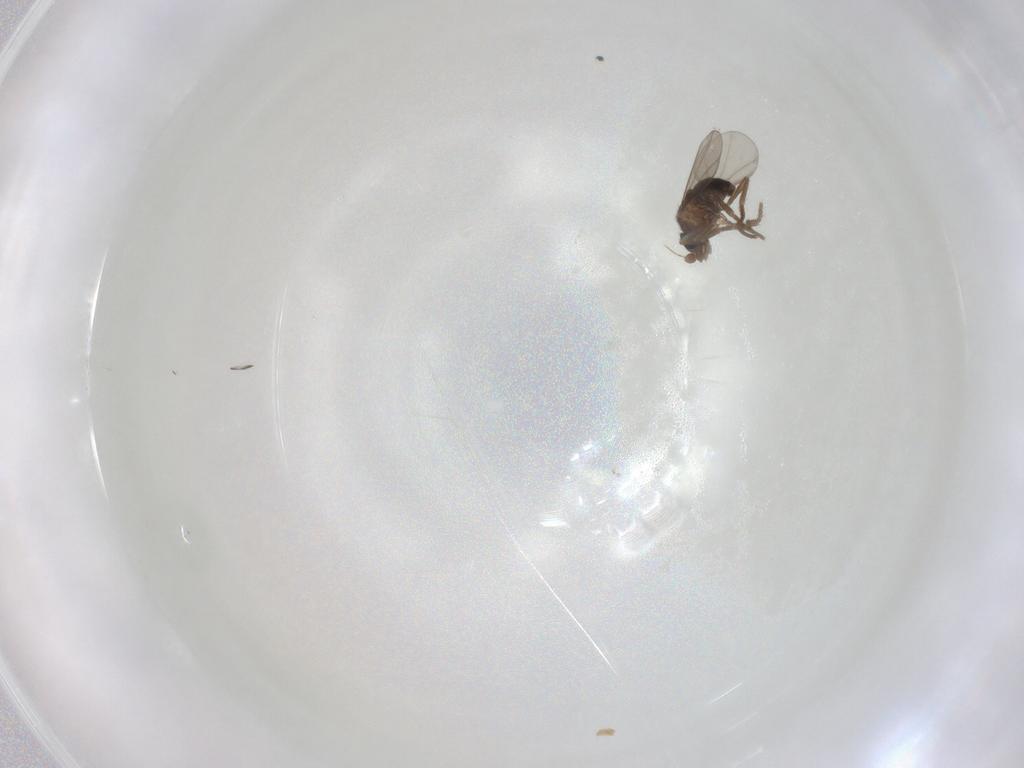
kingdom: Animalia
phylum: Arthropoda
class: Insecta
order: Diptera
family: Phoridae
